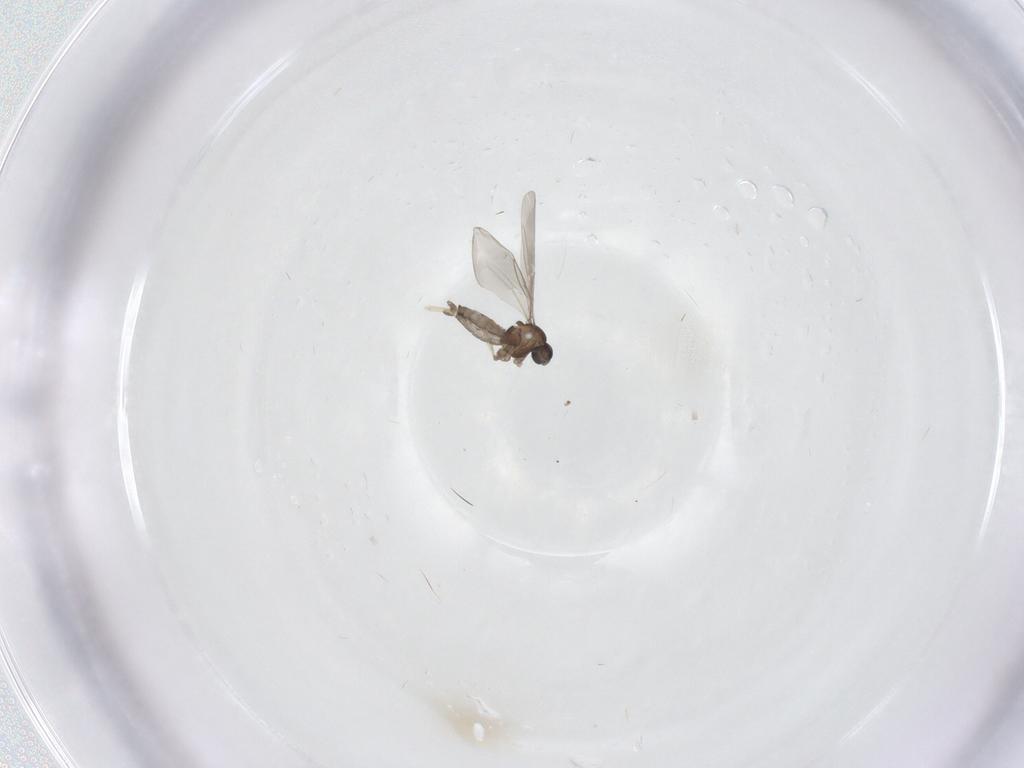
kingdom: Animalia
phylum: Arthropoda
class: Insecta
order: Diptera
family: Cecidomyiidae
